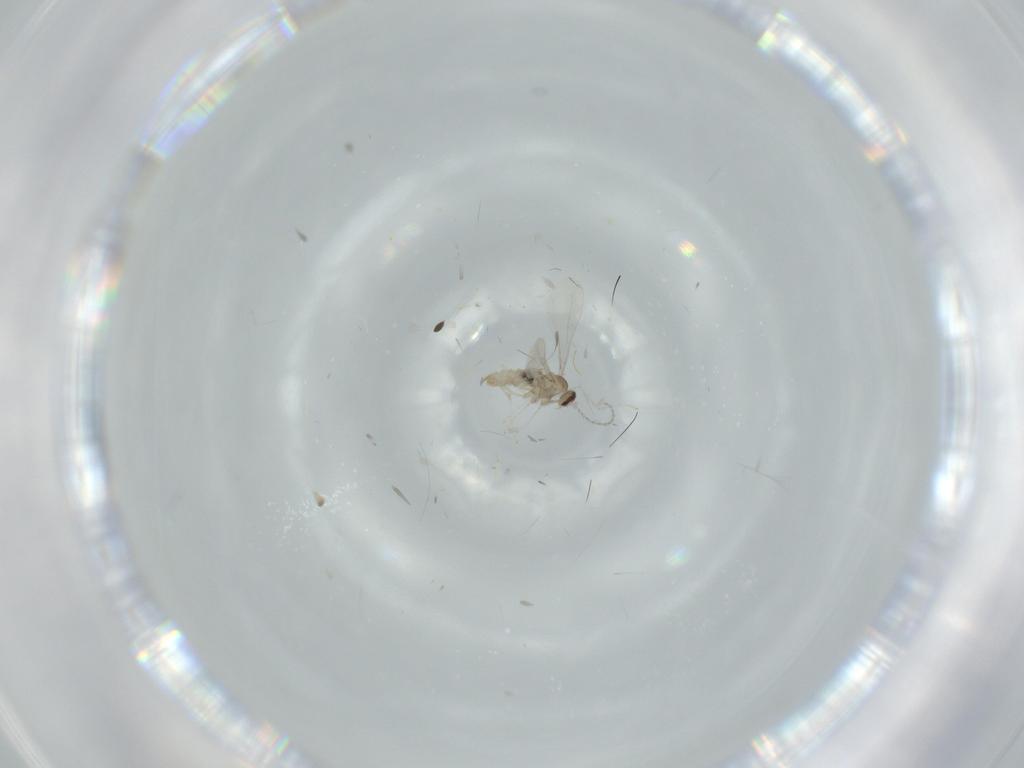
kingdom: Animalia
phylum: Arthropoda
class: Insecta
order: Diptera
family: Cecidomyiidae
